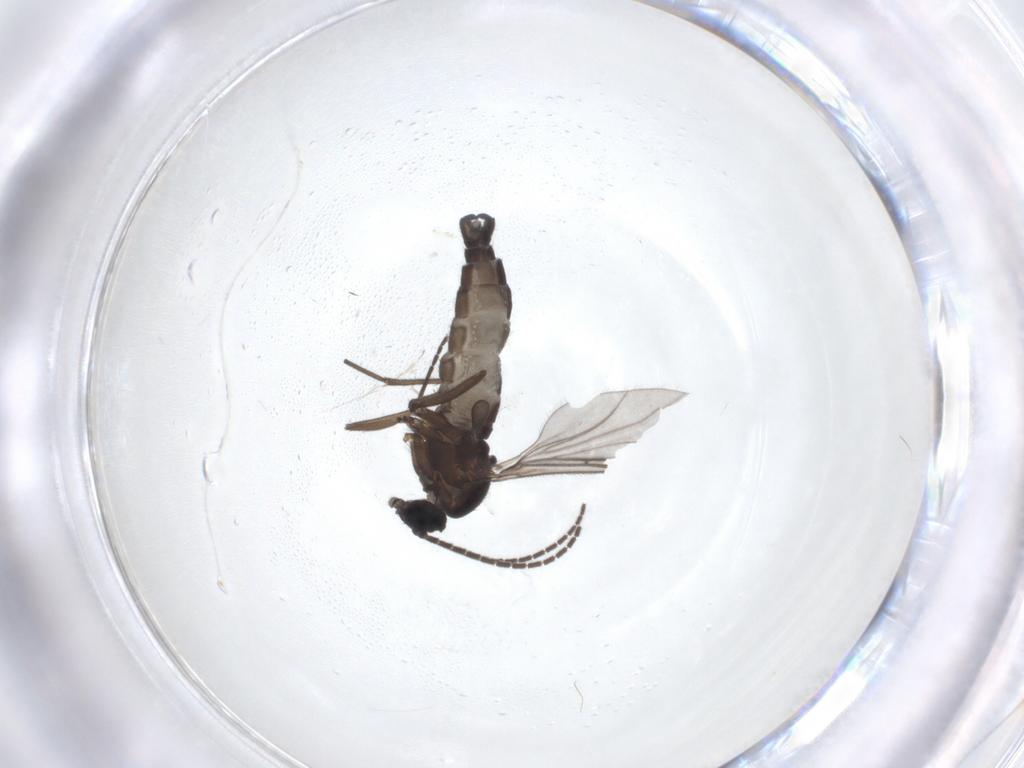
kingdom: Animalia
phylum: Arthropoda
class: Insecta
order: Diptera
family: Sciaridae
